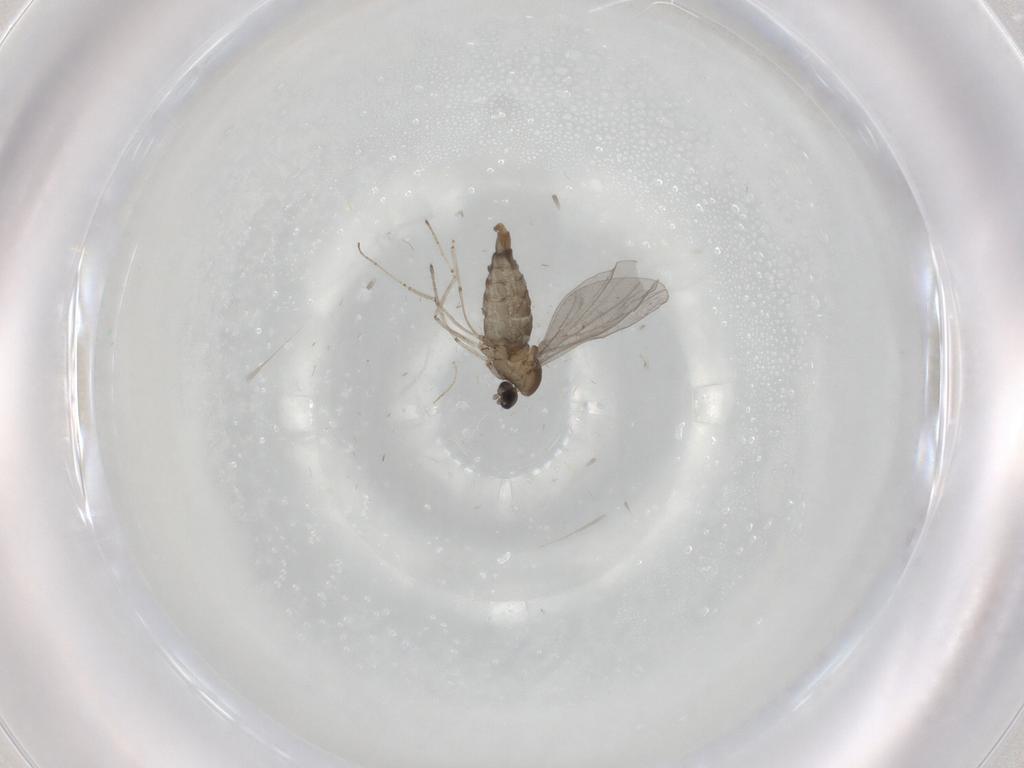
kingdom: Animalia
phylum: Arthropoda
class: Insecta
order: Diptera
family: Cecidomyiidae
